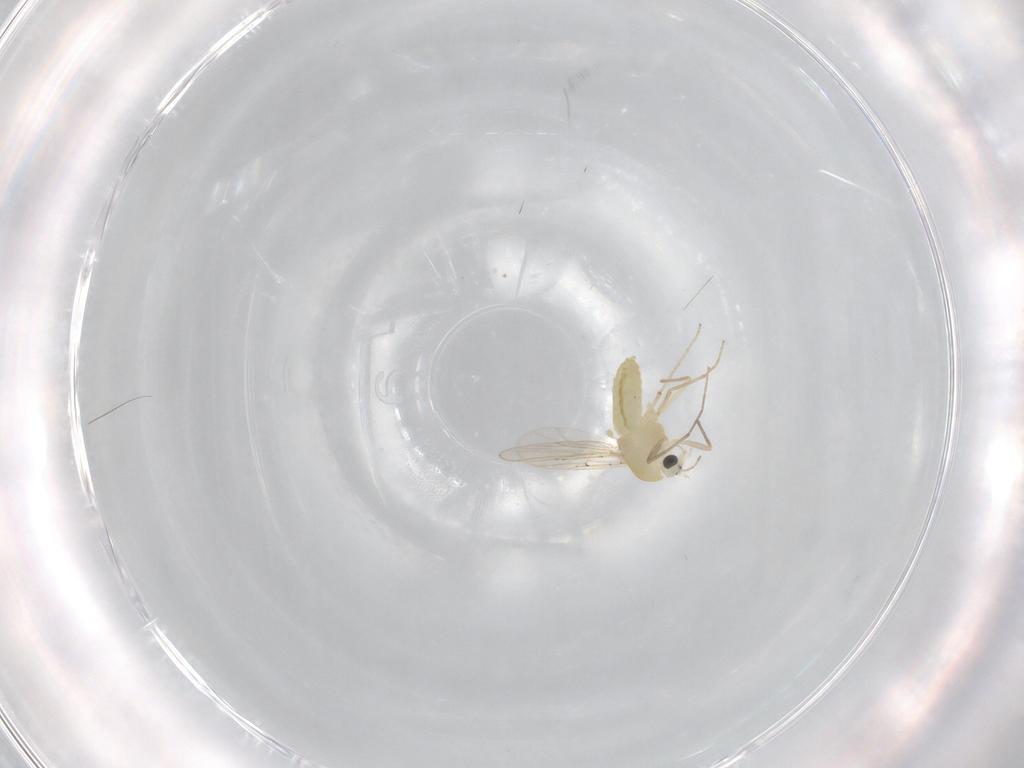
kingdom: Animalia
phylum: Arthropoda
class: Insecta
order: Diptera
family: Chironomidae
